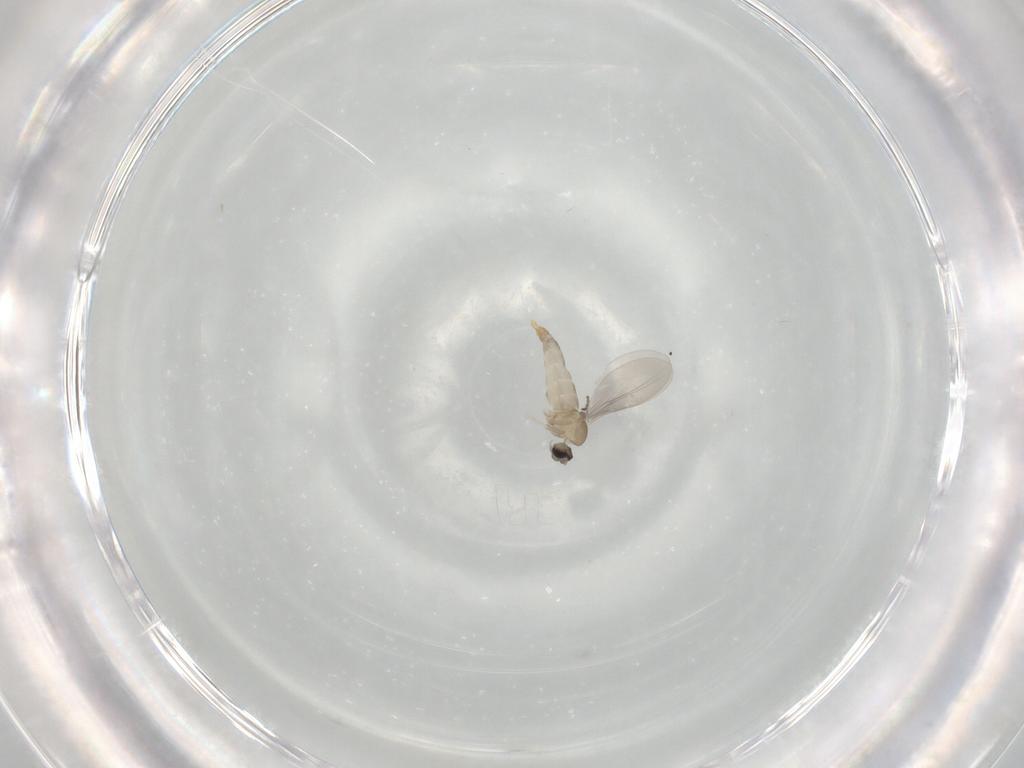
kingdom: Animalia
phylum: Arthropoda
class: Insecta
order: Diptera
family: Cecidomyiidae
